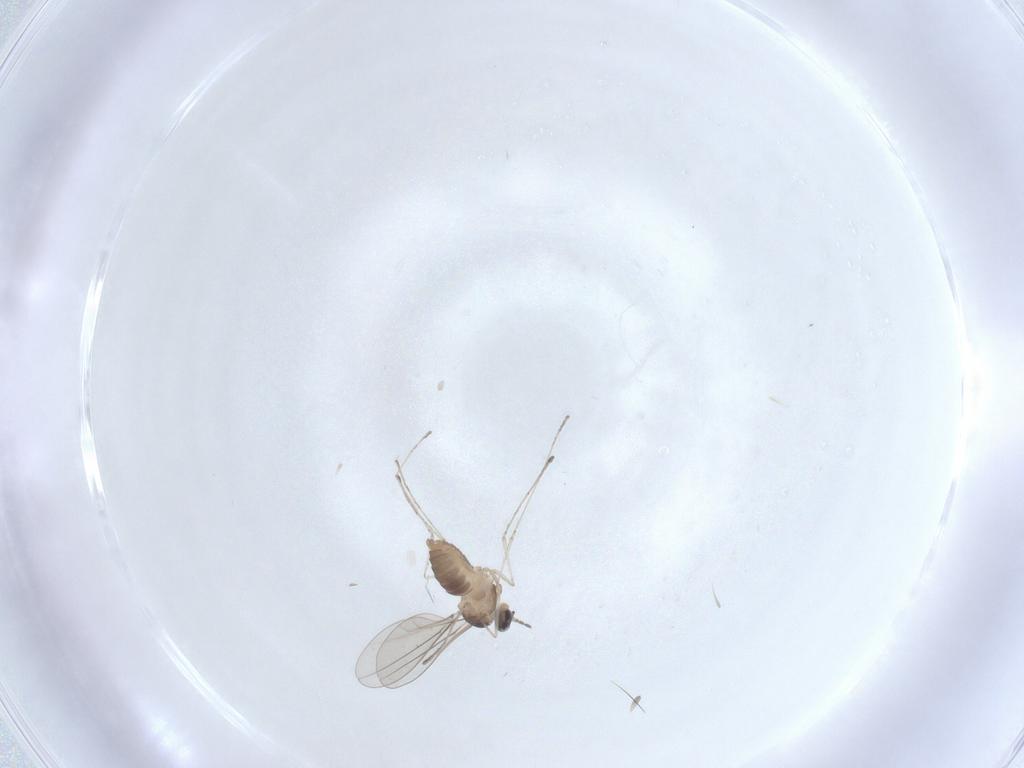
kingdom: Animalia
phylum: Arthropoda
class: Insecta
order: Diptera
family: Cecidomyiidae
